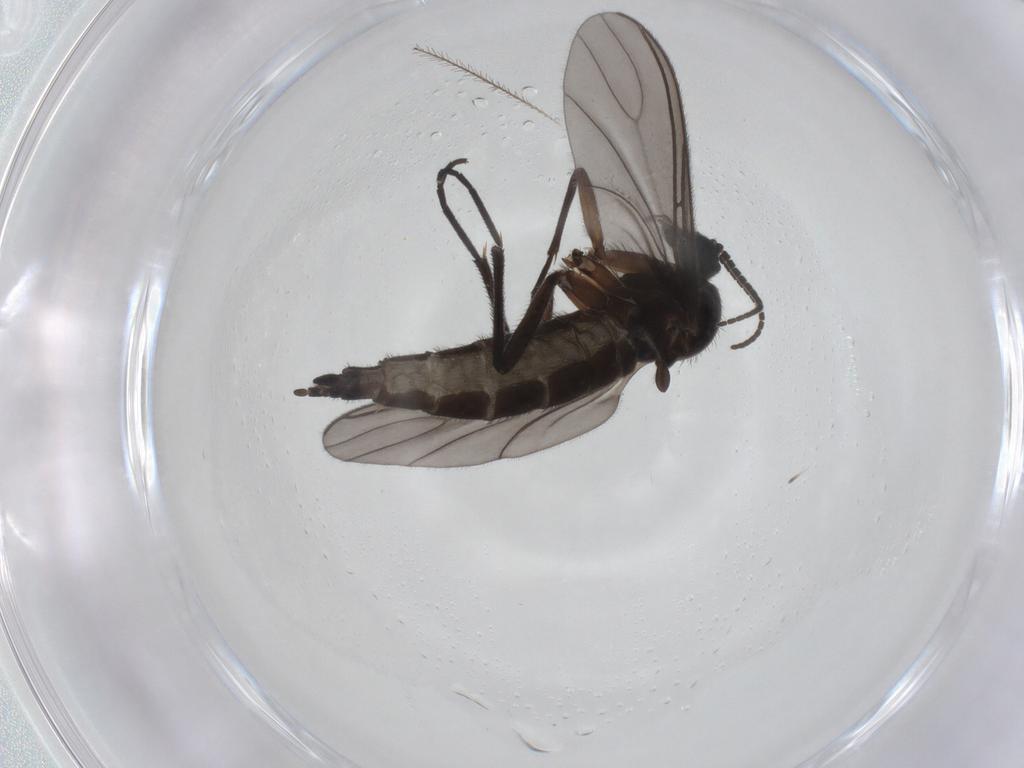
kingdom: Animalia
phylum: Arthropoda
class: Insecta
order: Diptera
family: Sciaridae
